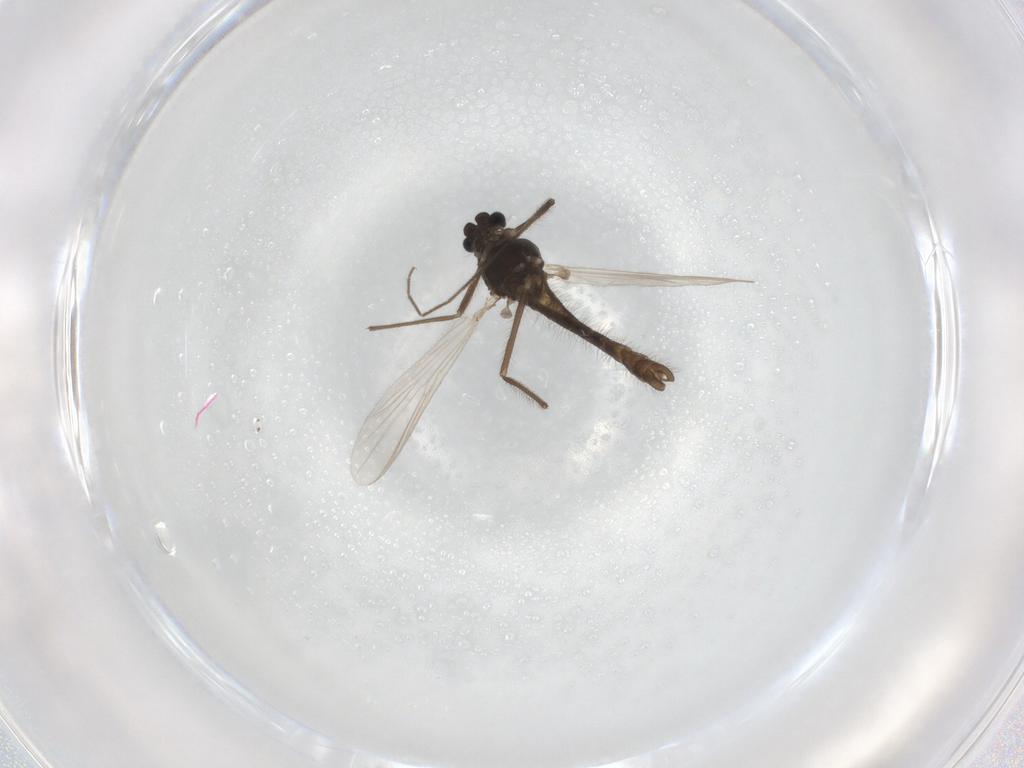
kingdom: Animalia
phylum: Arthropoda
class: Insecta
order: Diptera
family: Chironomidae
